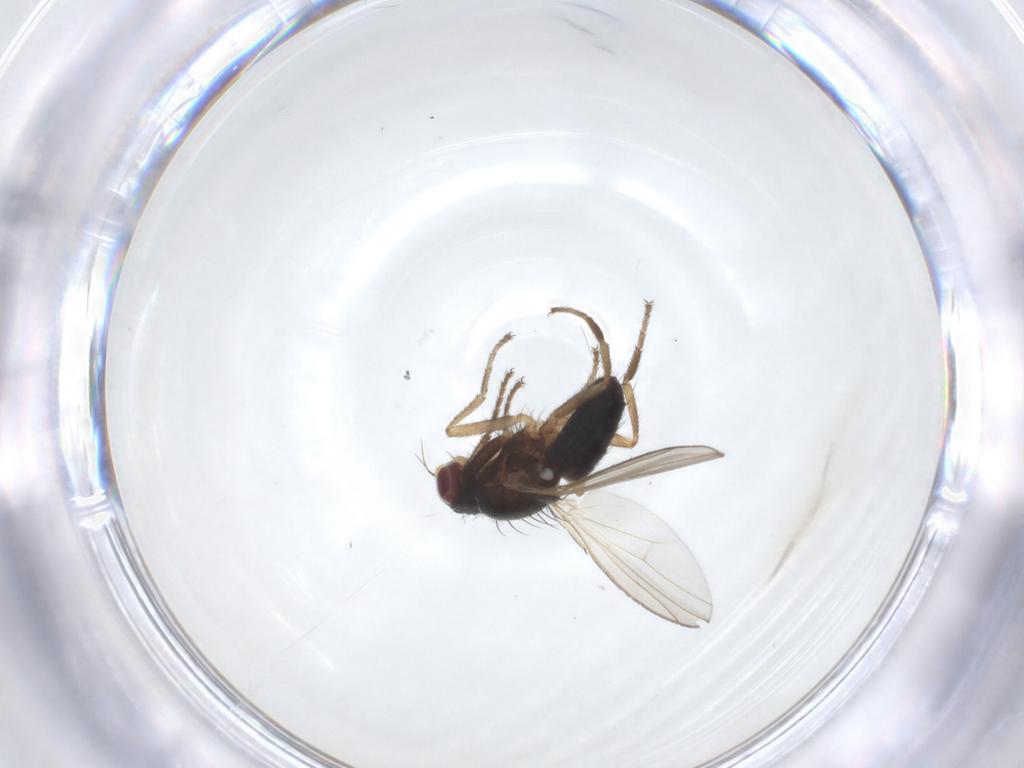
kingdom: Animalia
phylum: Arthropoda
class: Insecta
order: Diptera
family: Heleomyzidae
